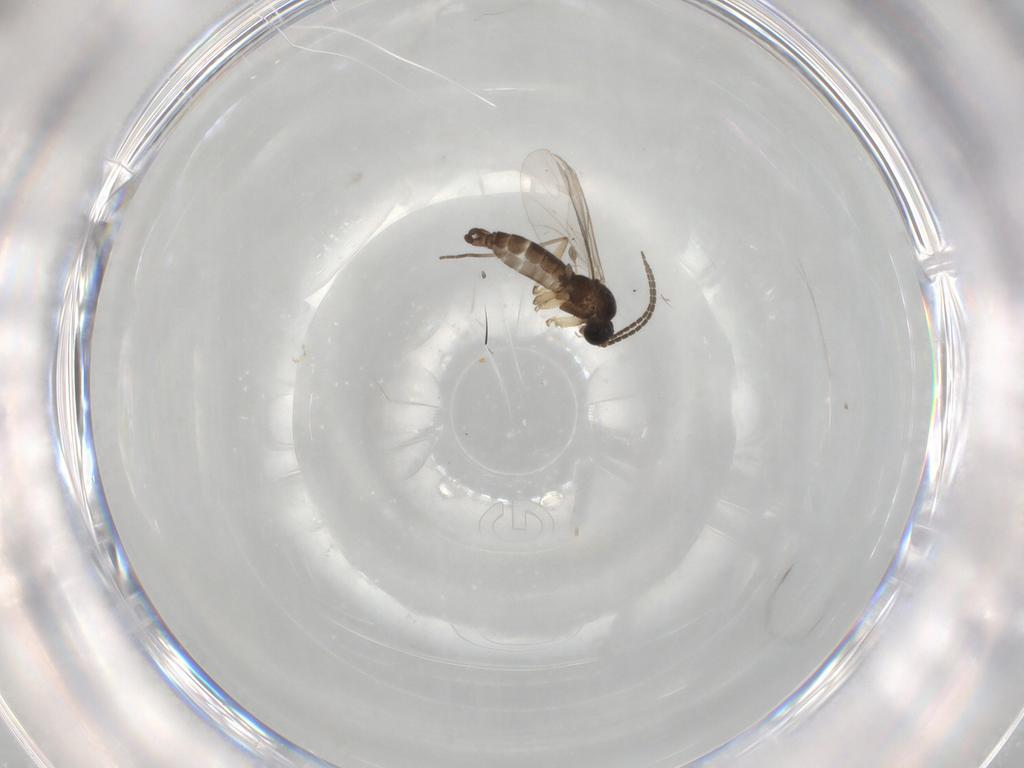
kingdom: Animalia
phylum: Arthropoda
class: Insecta
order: Diptera
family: Sciaridae
